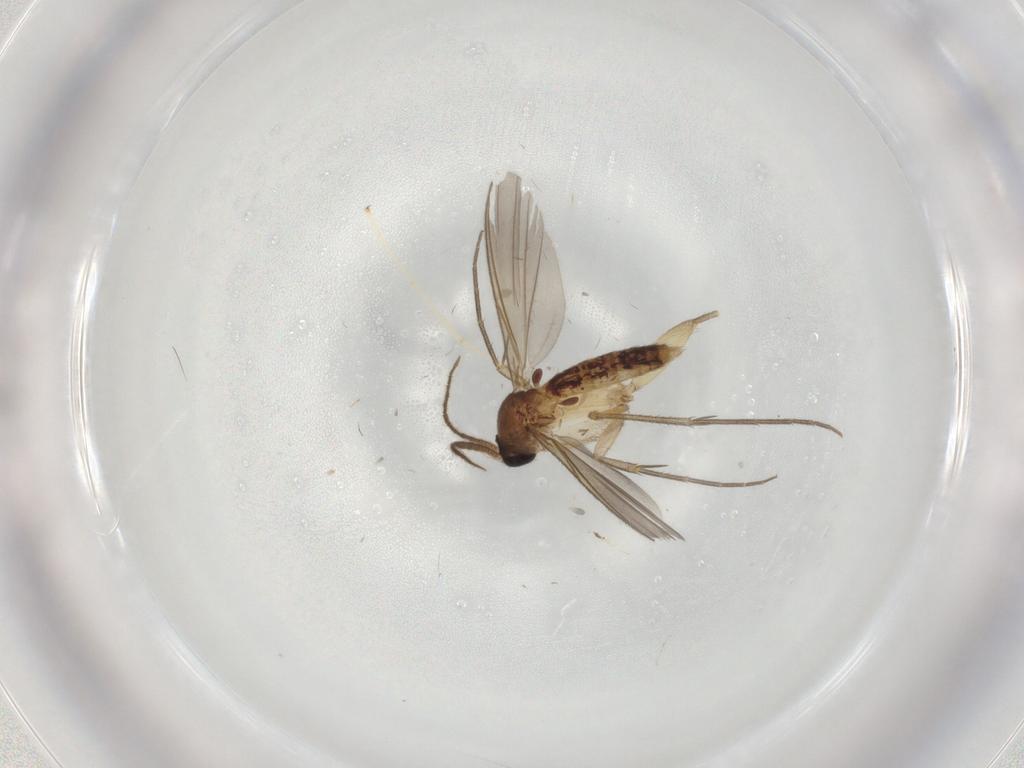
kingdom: Animalia
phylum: Arthropoda
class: Insecta
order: Diptera
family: Mycetophilidae
